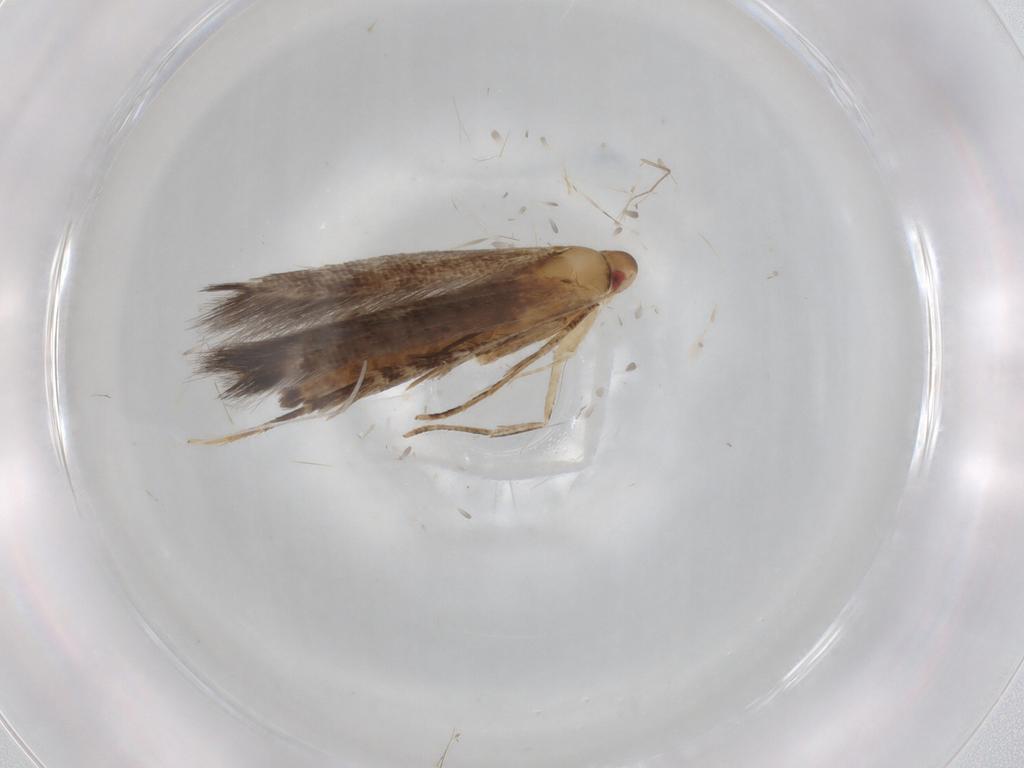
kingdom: Animalia
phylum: Arthropoda
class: Insecta
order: Lepidoptera
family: Cosmopterigidae
